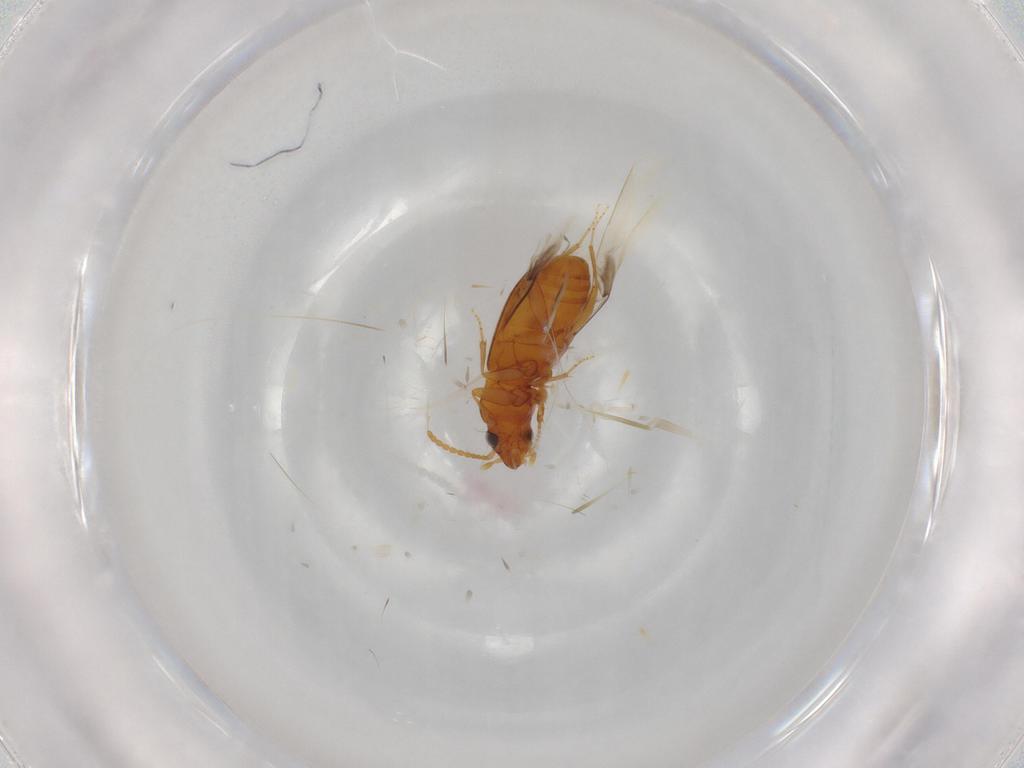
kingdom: Animalia
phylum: Arthropoda
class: Insecta
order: Coleoptera
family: Carabidae
